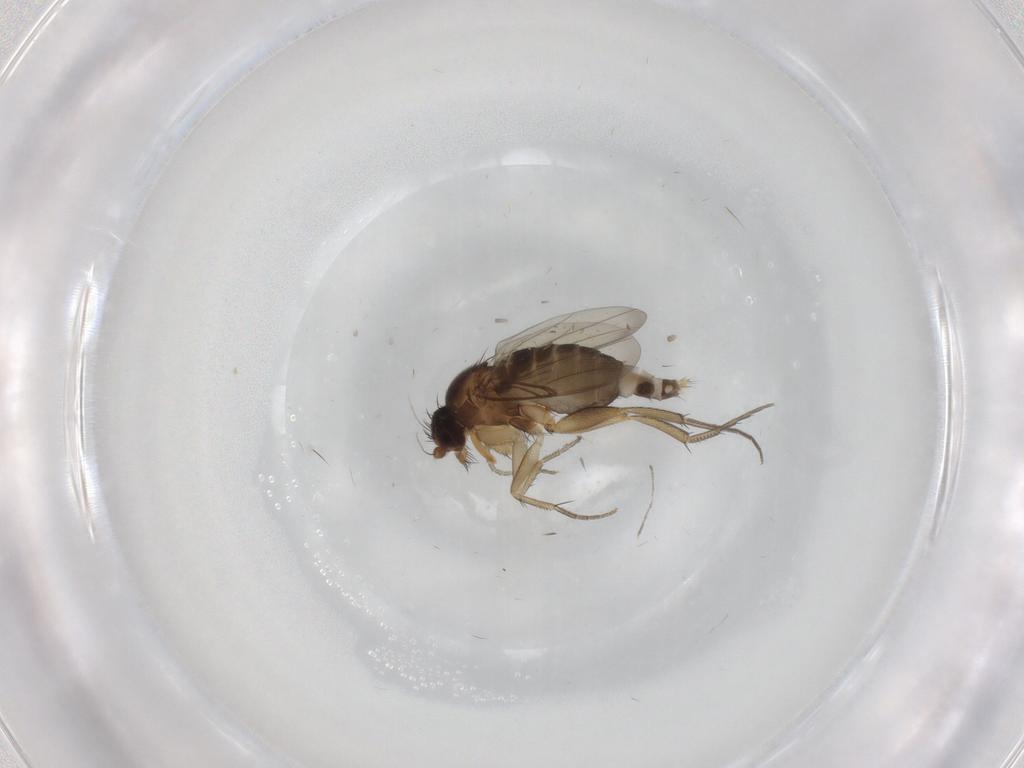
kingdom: Animalia
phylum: Arthropoda
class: Insecta
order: Diptera
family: Phoridae
